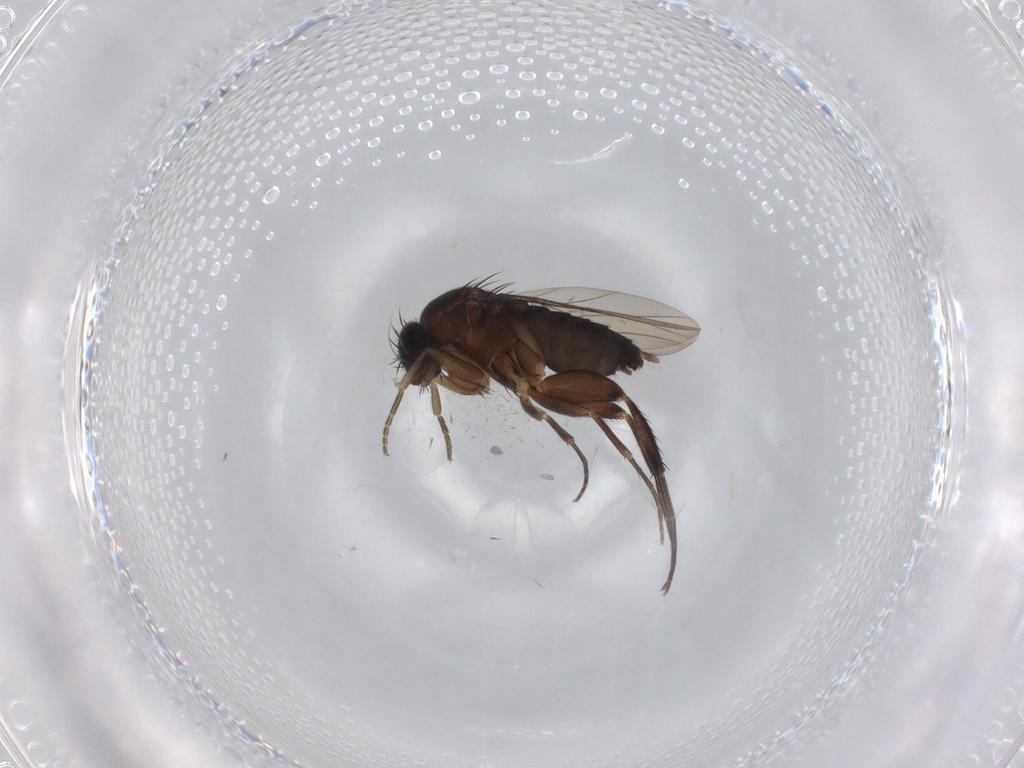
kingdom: Animalia
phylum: Arthropoda
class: Insecta
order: Diptera
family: Phoridae
